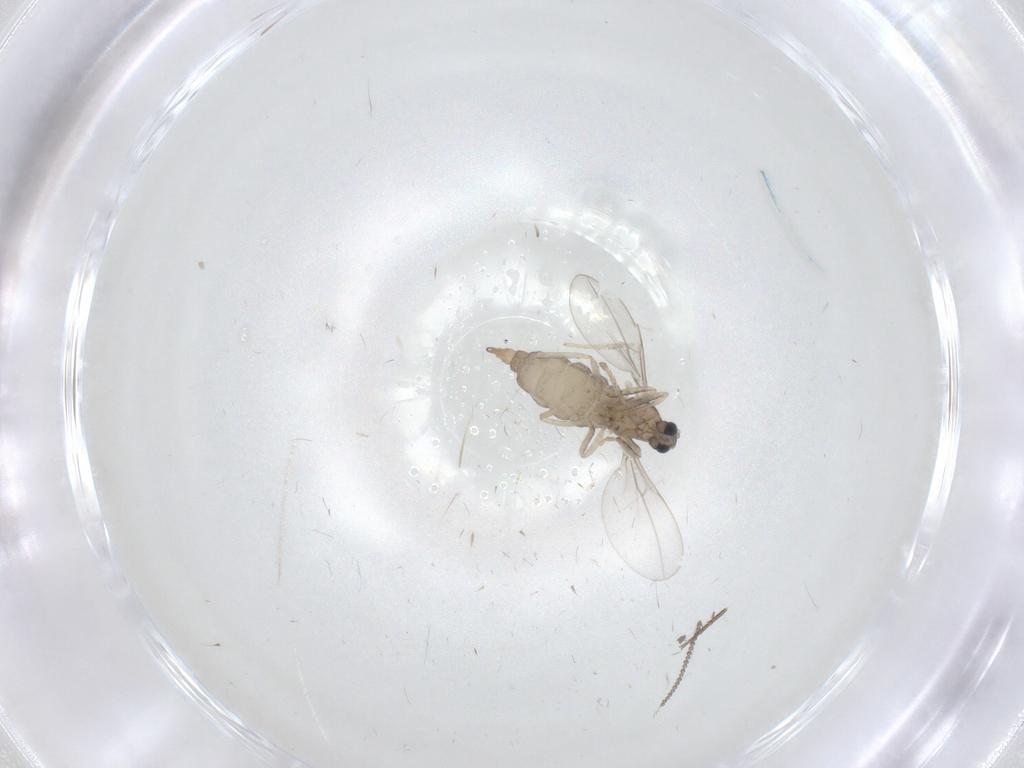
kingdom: Animalia
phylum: Arthropoda
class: Insecta
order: Diptera
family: Cecidomyiidae
